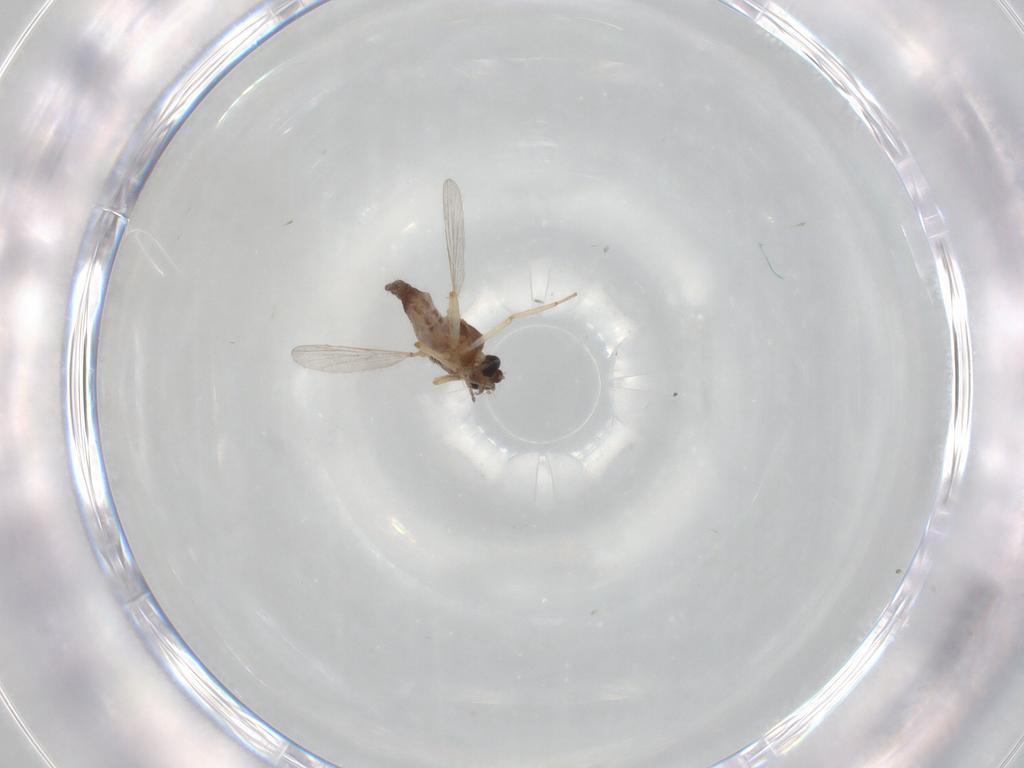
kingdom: Animalia
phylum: Arthropoda
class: Insecta
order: Diptera
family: Ceratopogonidae
